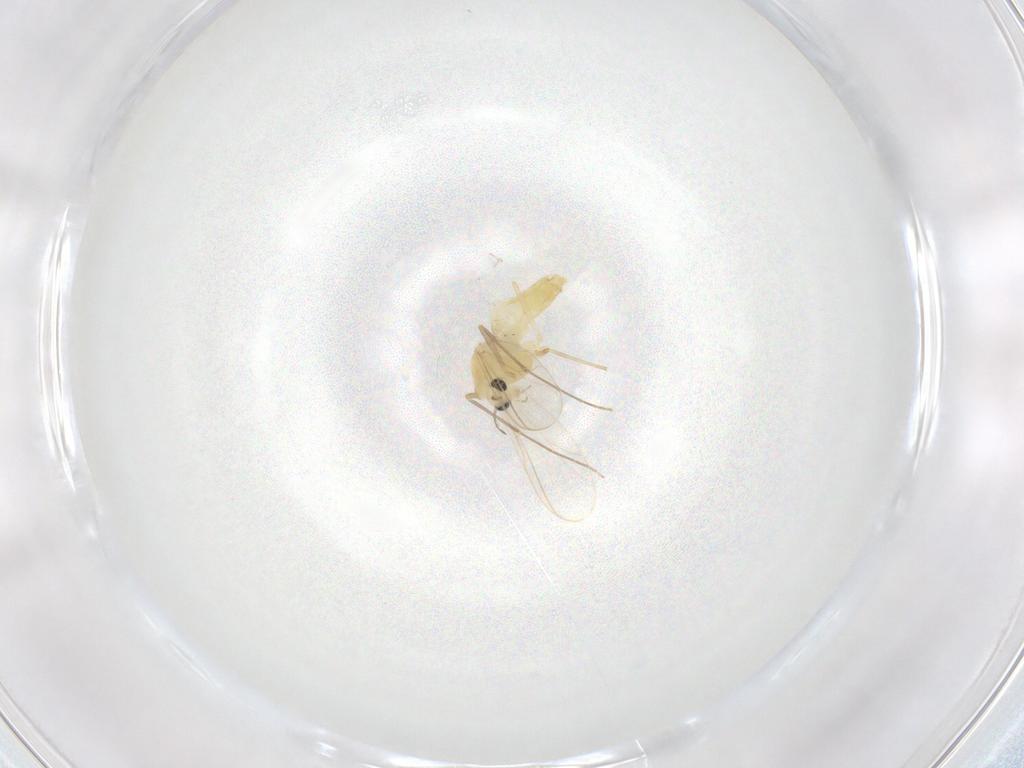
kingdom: Animalia
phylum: Arthropoda
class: Insecta
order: Diptera
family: Chironomidae
